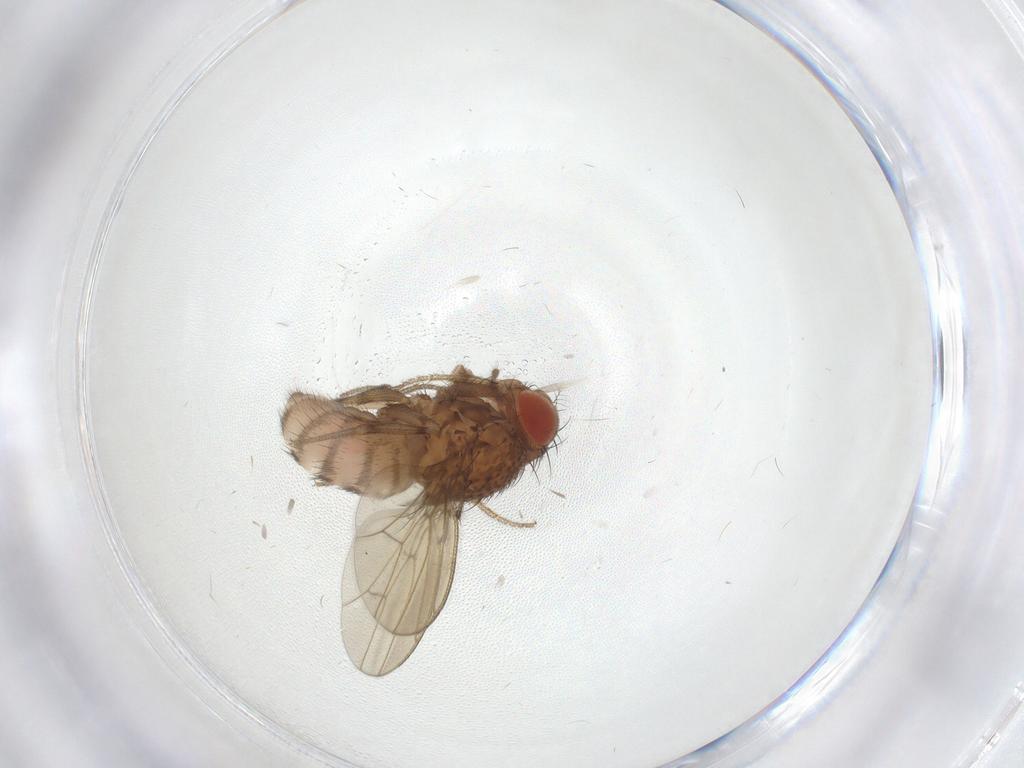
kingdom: Animalia
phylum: Arthropoda
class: Insecta
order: Diptera
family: Drosophilidae
